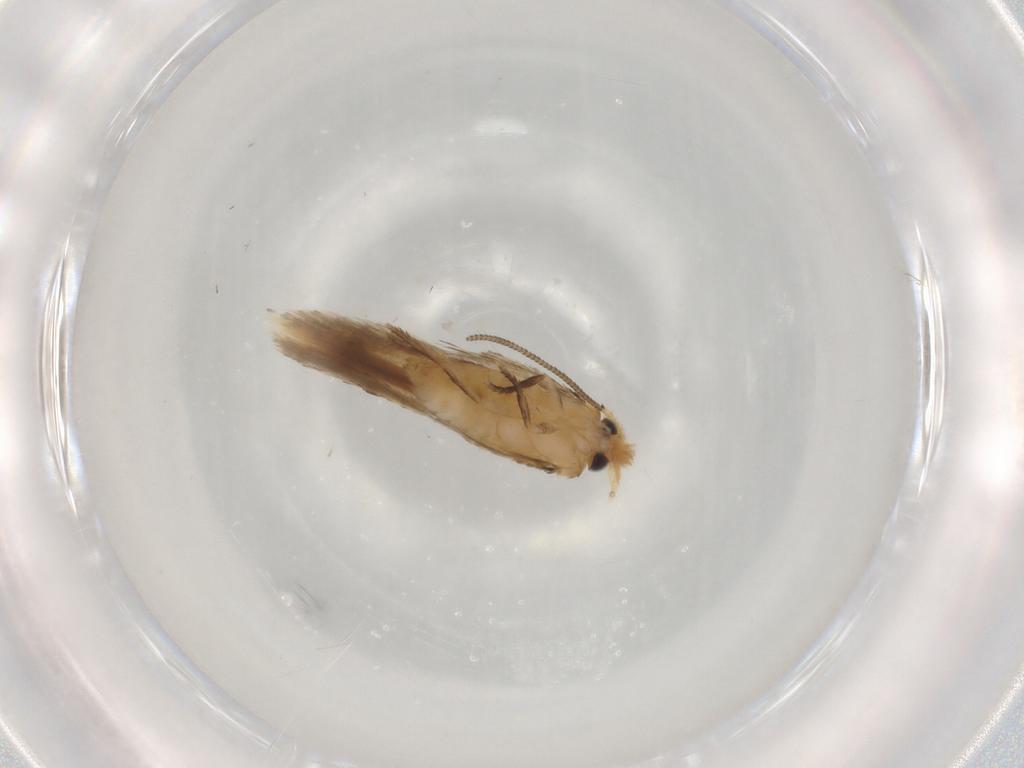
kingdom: Animalia
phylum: Arthropoda
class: Insecta
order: Lepidoptera
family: Nepticulidae
